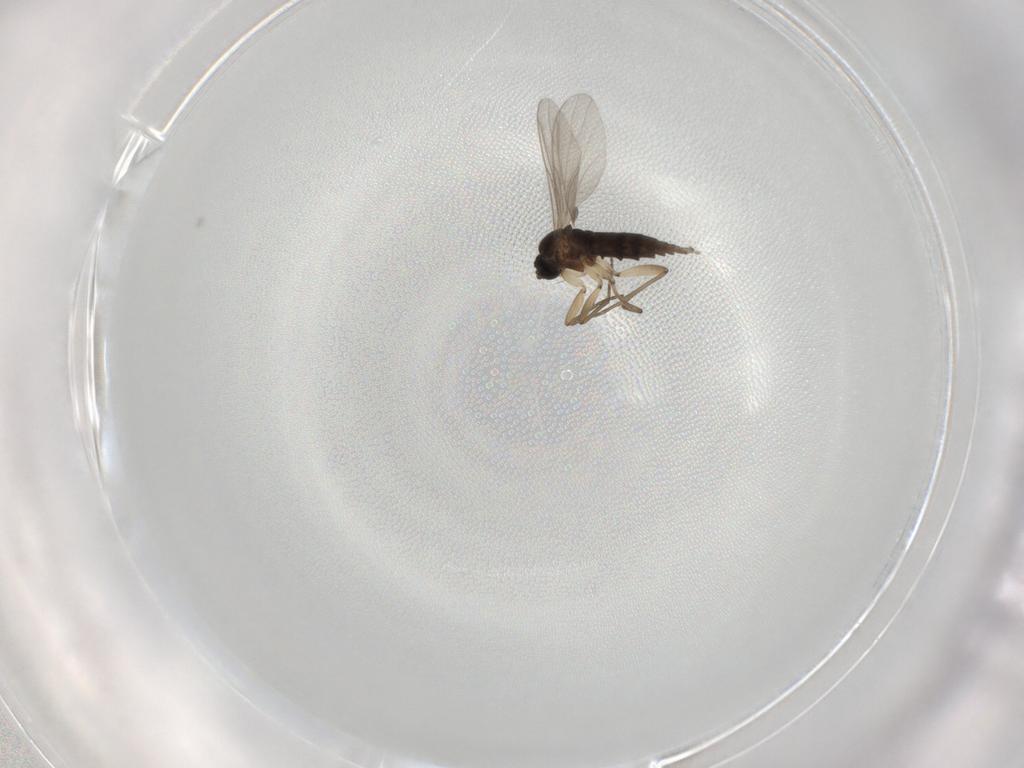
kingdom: Animalia
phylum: Arthropoda
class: Insecta
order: Diptera
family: Sciaridae
